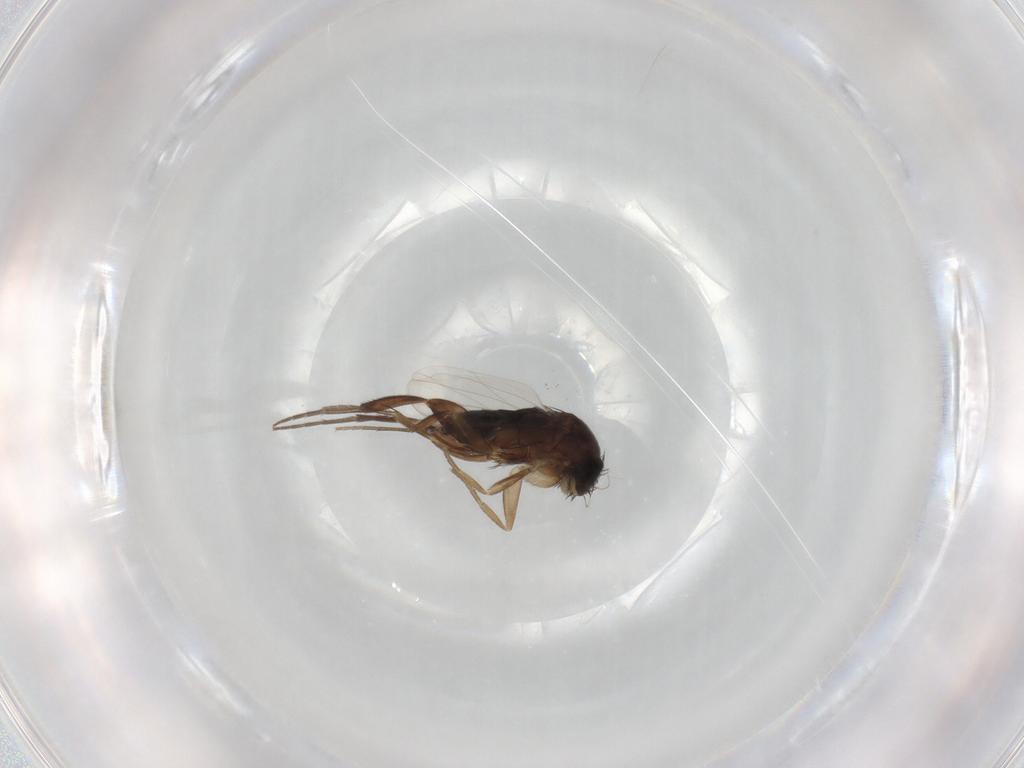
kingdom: Animalia
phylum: Arthropoda
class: Insecta
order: Diptera
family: Phoridae
